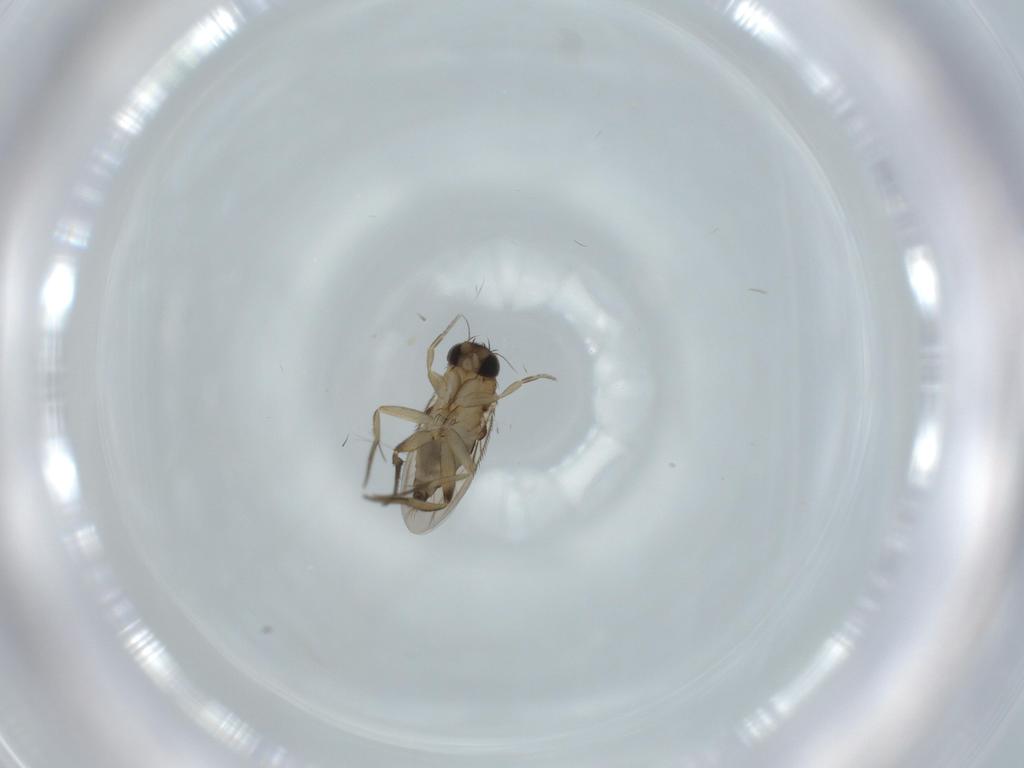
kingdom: Animalia
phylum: Arthropoda
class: Insecta
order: Diptera
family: Phoridae
